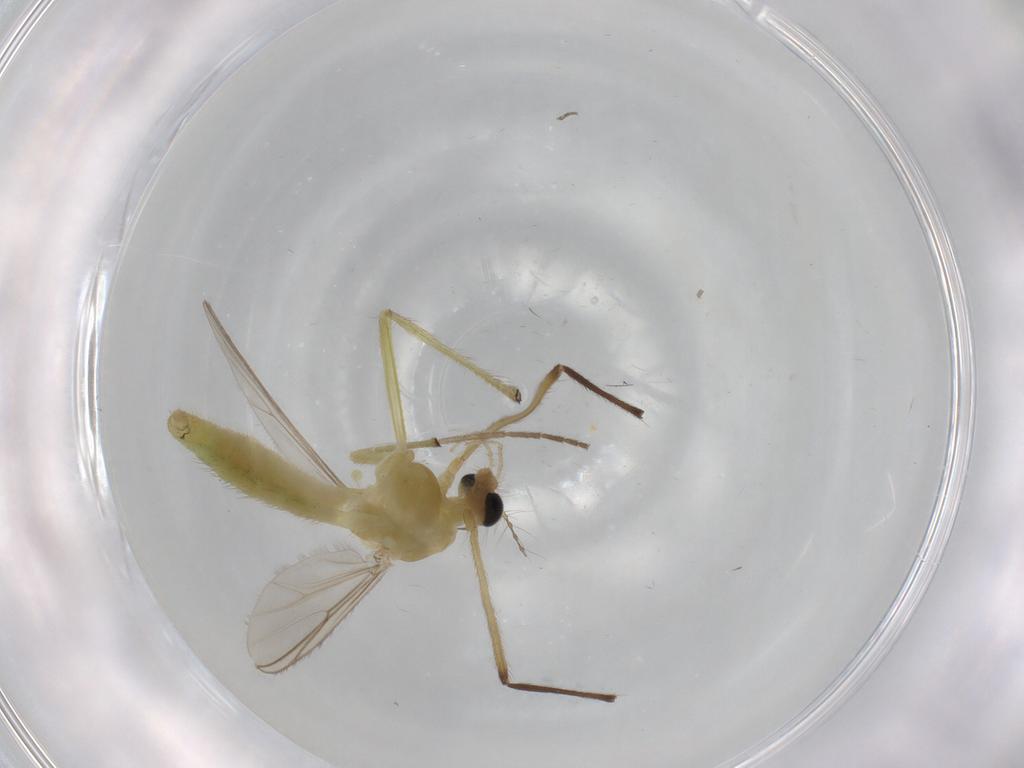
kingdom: Animalia
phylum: Arthropoda
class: Insecta
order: Diptera
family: Chironomidae
